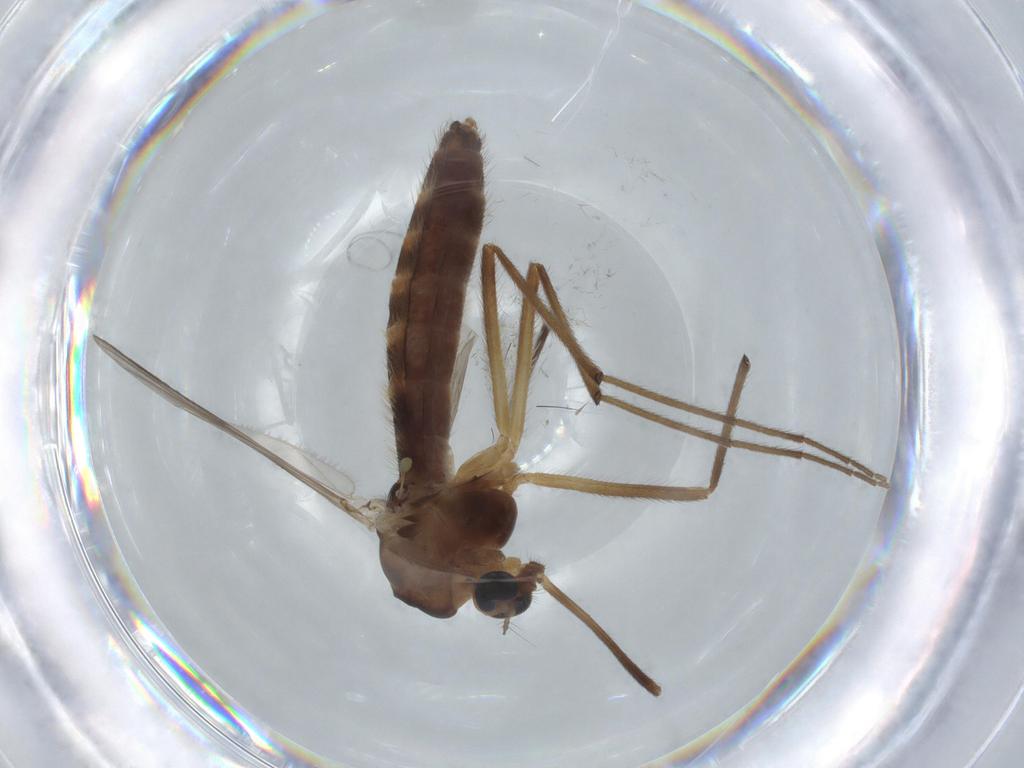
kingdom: Animalia
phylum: Arthropoda
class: Insecta
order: Diptera
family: Chironomidae
